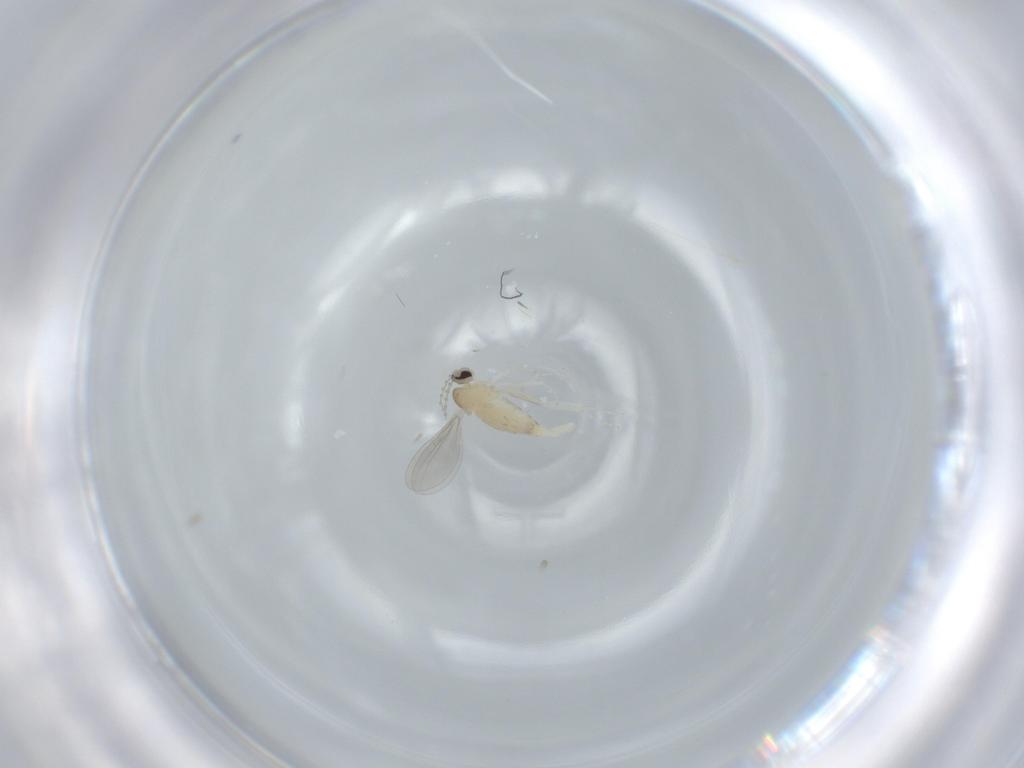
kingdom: Animalia
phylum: Arthropoda
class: Insecta
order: Diptera
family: Cecidomyiidae
